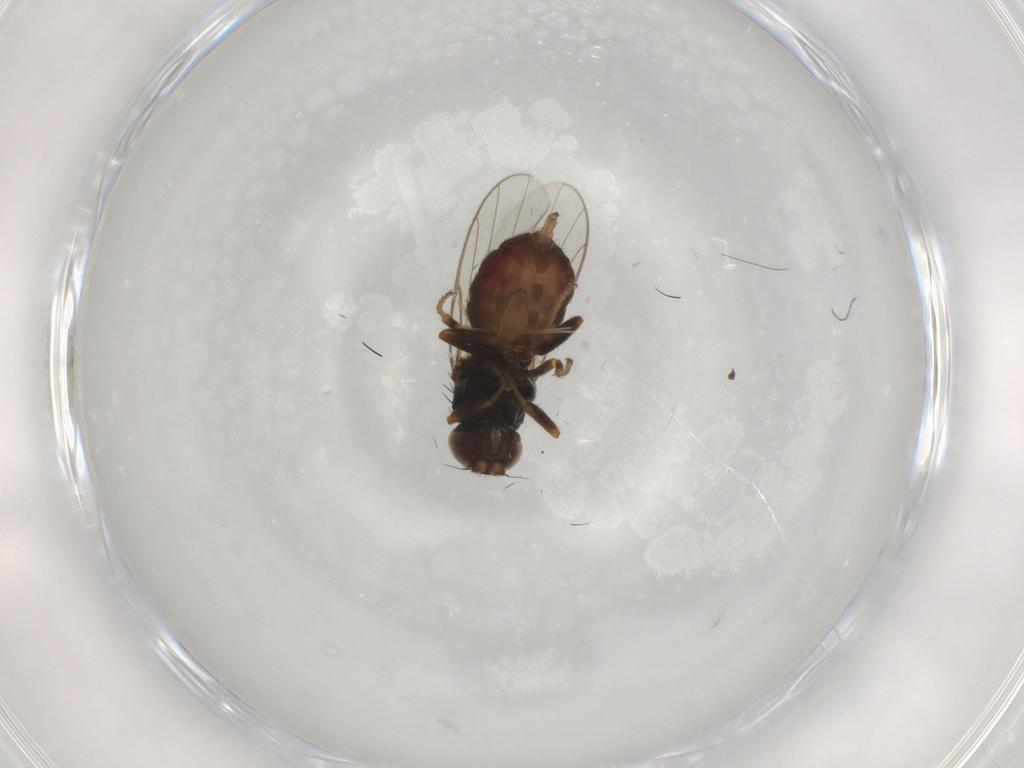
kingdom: Animalia
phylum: Arthropoda
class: Insecta
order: Diptera
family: Chloropidae
